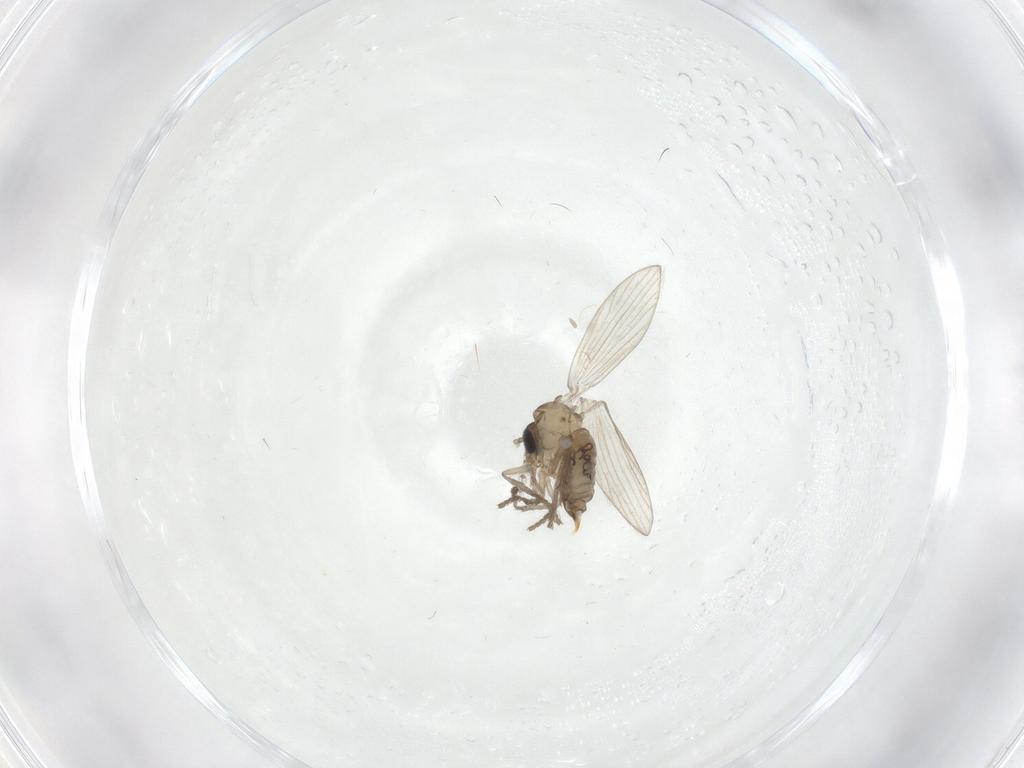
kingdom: Animalia
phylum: Arthropoda
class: Insecta
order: Diptera
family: Psychodidae
